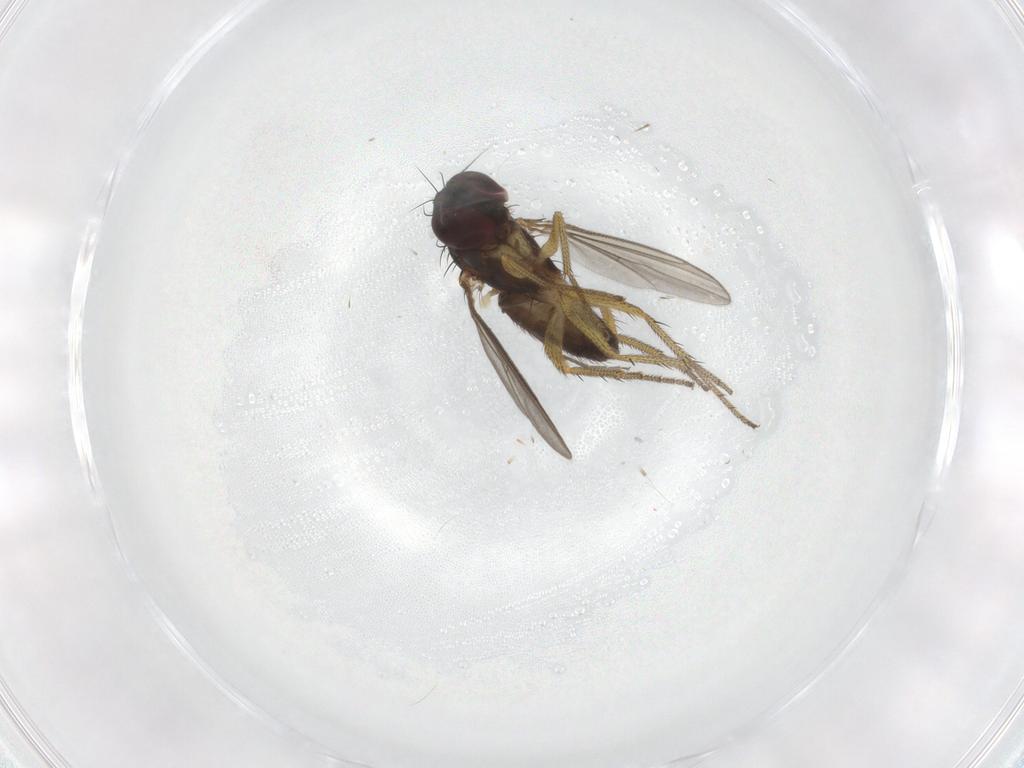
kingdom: Animalia
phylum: Arthropoda
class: Insecta
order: Diptera
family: Dolichopodidae
